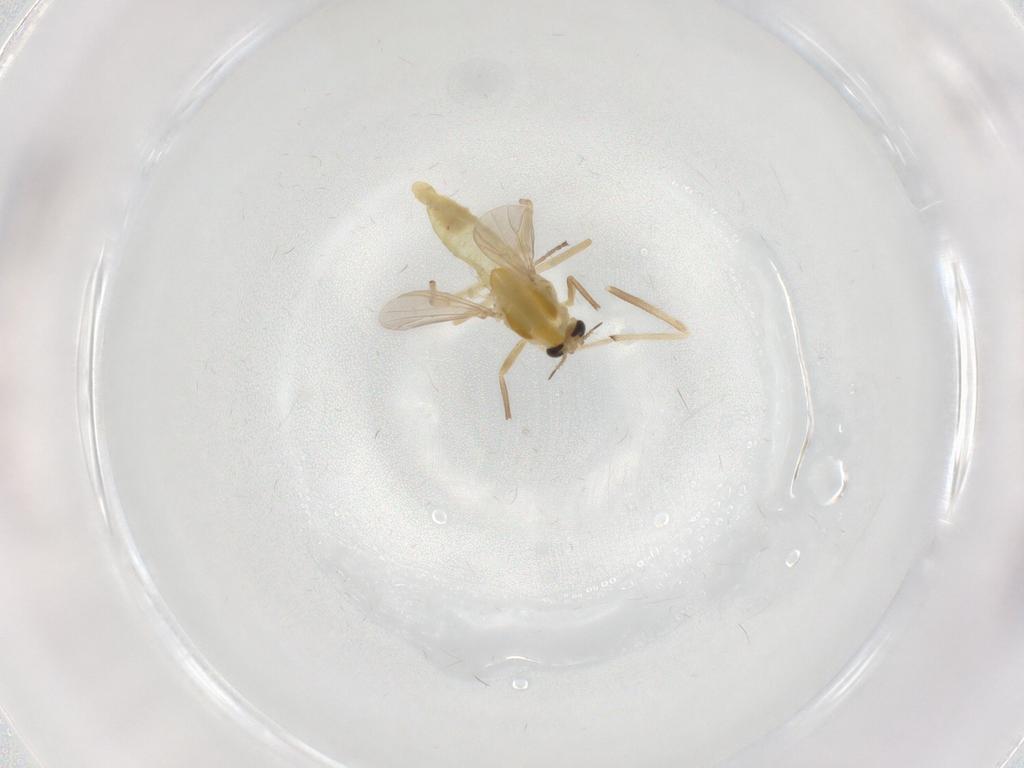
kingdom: Animalia
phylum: Arthropoda
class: Insecta
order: Diptera
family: Chironomidae
